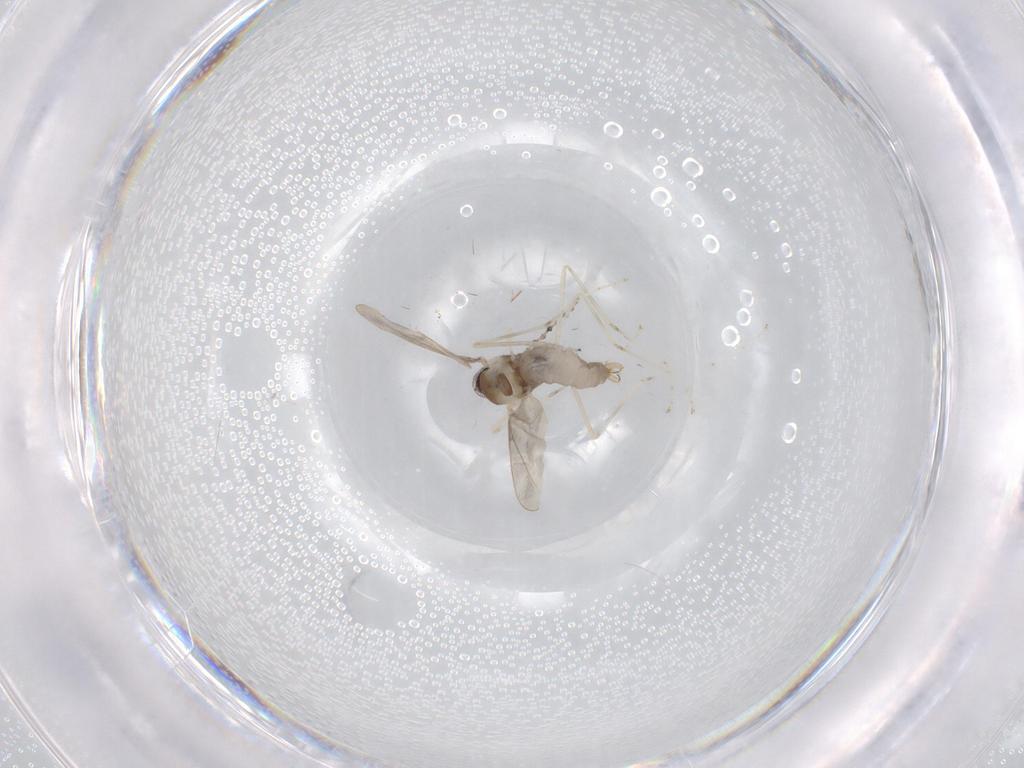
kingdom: Animalia
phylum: Arthropoda
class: Insecta
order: Diptera
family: Cecidomyiidae
